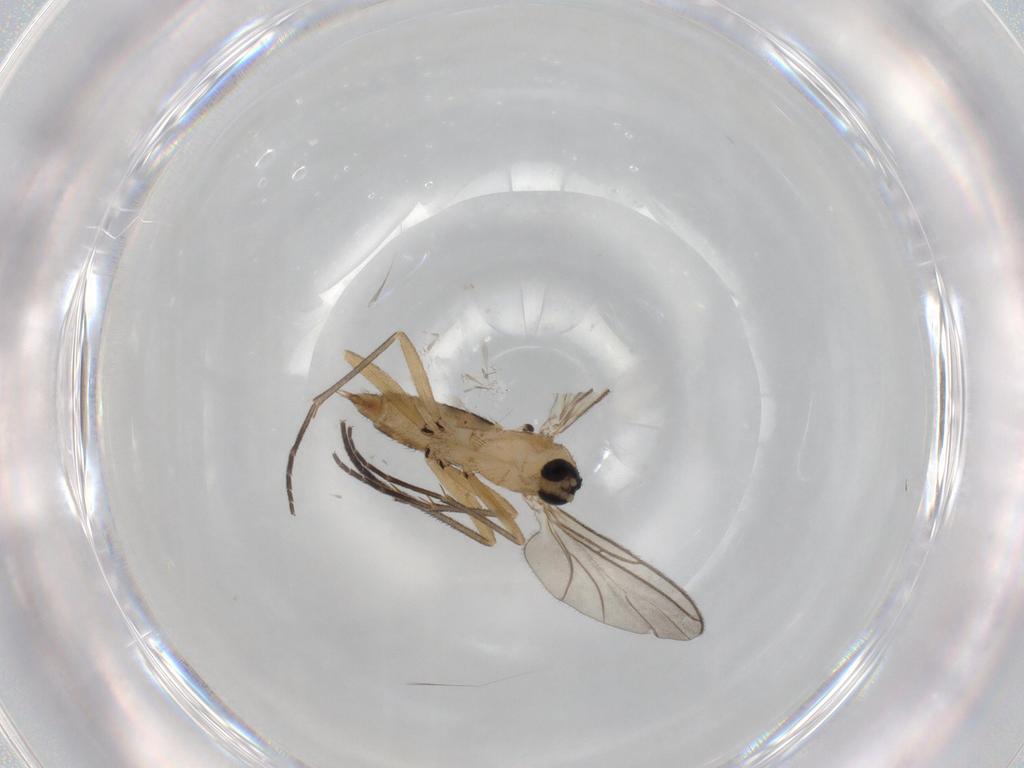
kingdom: Animalia
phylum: Arthropoda
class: Insecta
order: Diptera
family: Sciaridae
